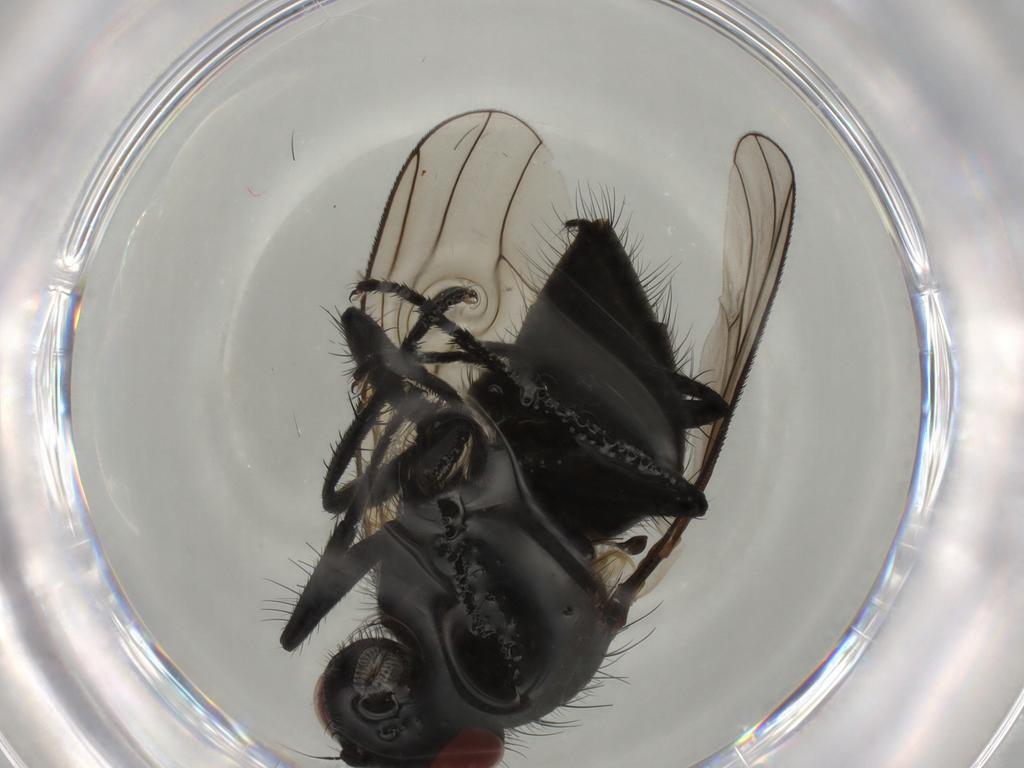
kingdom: Animalia
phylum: Arthropoda
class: Insecta
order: Diptera
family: Muscidae
